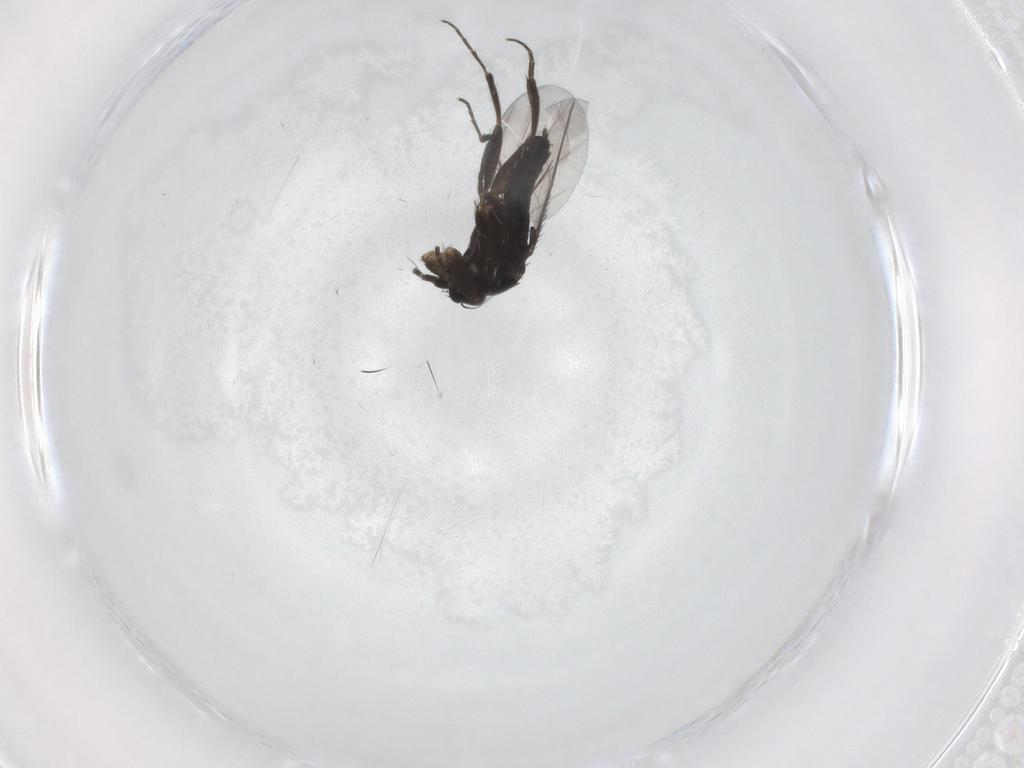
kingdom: Animalia
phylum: Arthropoda
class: Insecta
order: Diptera
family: Phoridae
